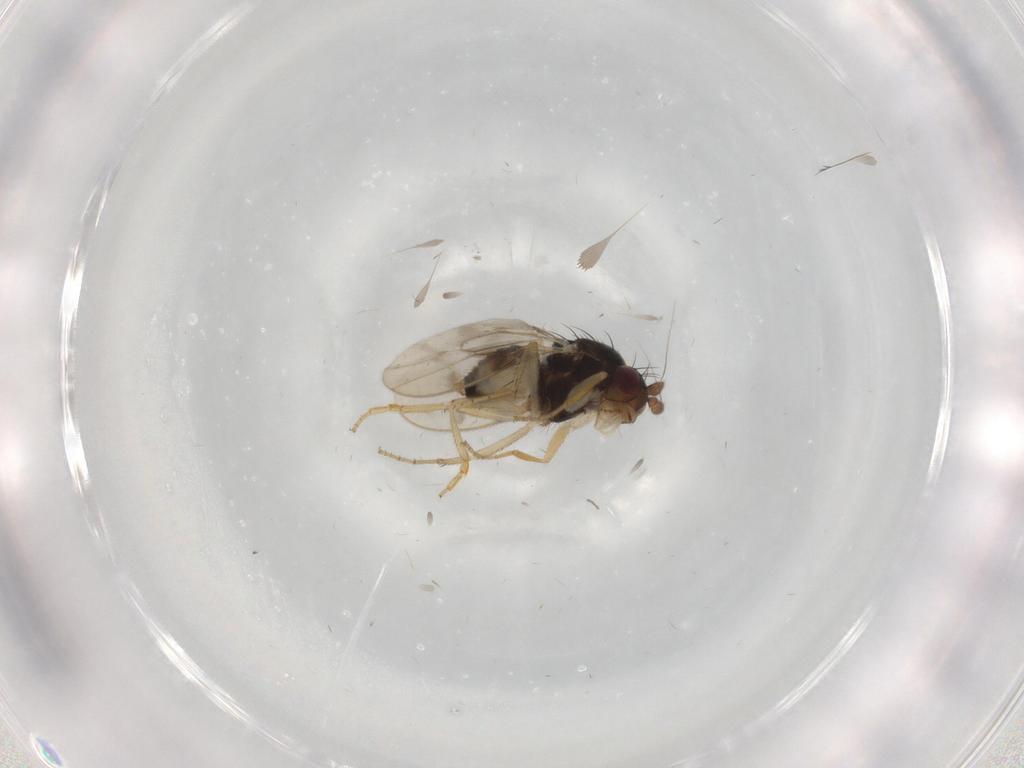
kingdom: Animalia
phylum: Arthropoda
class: Insecta
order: Diptera
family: Sphaeroceridae
